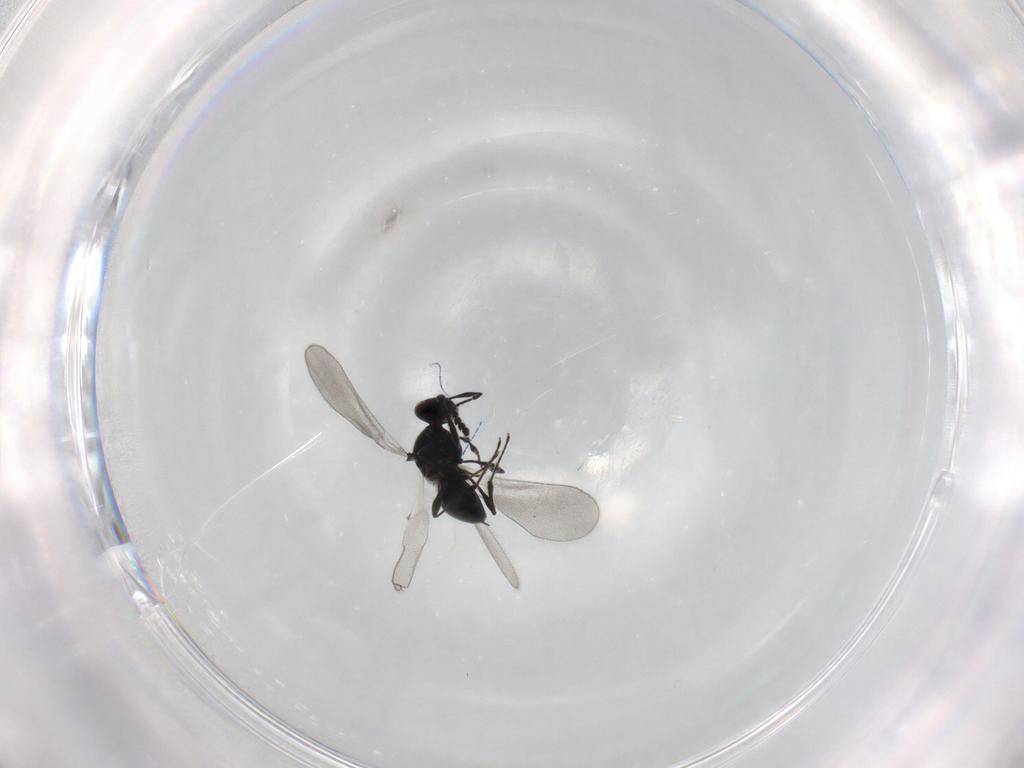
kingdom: Animalia
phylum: Arthropoda
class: Insecta
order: Hymenoptera
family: Platygastridae
